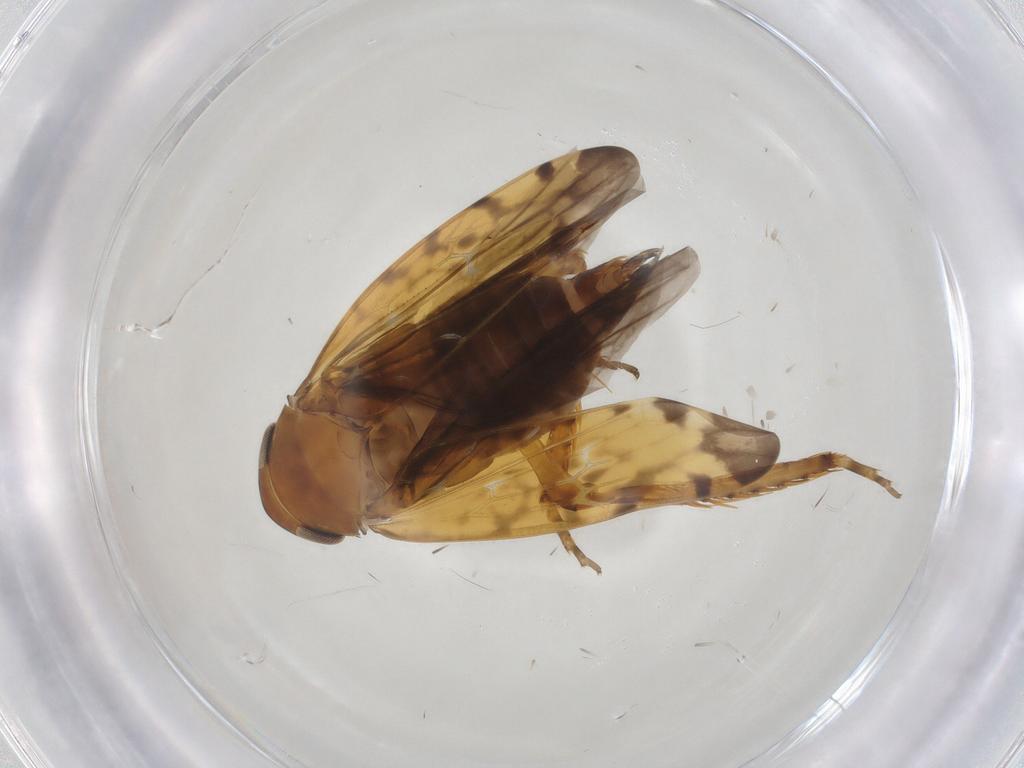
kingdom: Animalia
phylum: Arthropoda
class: Insecta
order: Hemiptera
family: Cicadellidae
